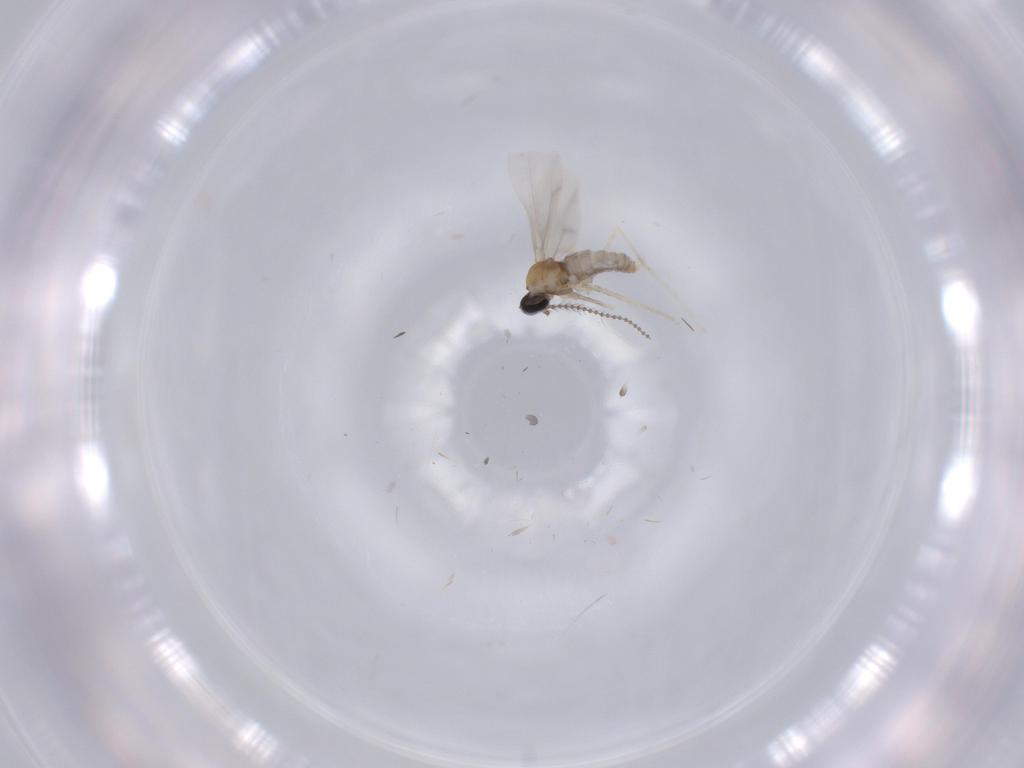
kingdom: Animalia
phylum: Arthropoda
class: Insecta
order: Diptera
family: Cecidomyiidae
